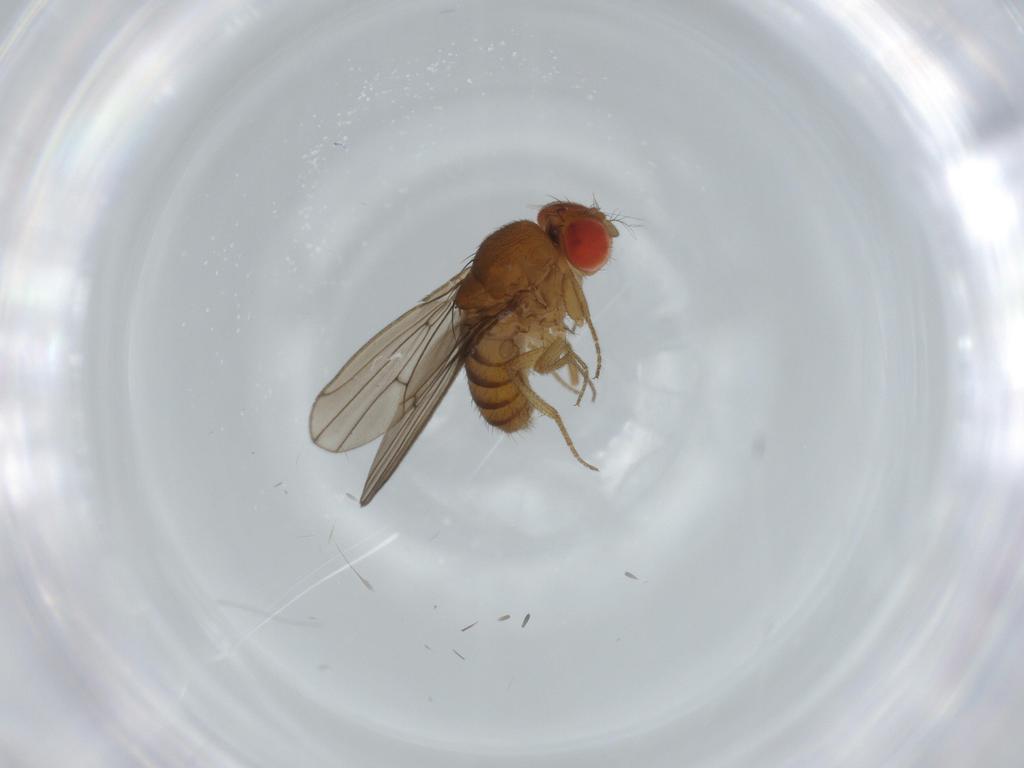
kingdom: Animalia
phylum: Arthropoda
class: Insecta
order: Diptera
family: Drosophilidae
